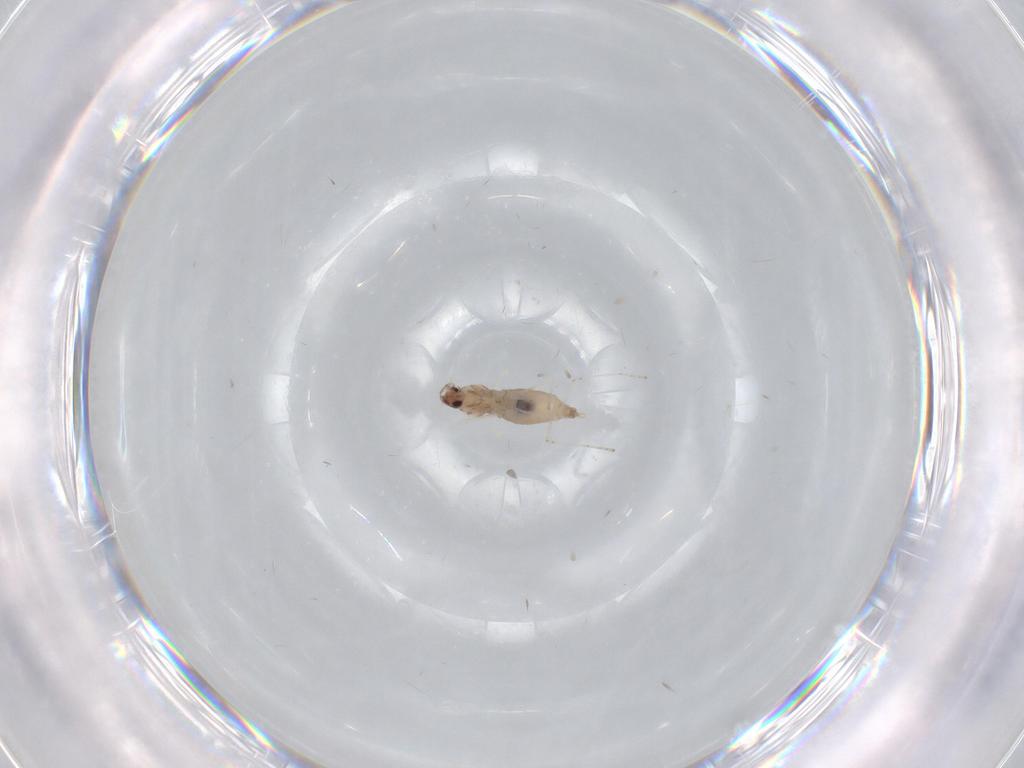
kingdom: Animalia
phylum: Arthropoda
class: Insecta
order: Diptera
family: Cecidomyiidae
